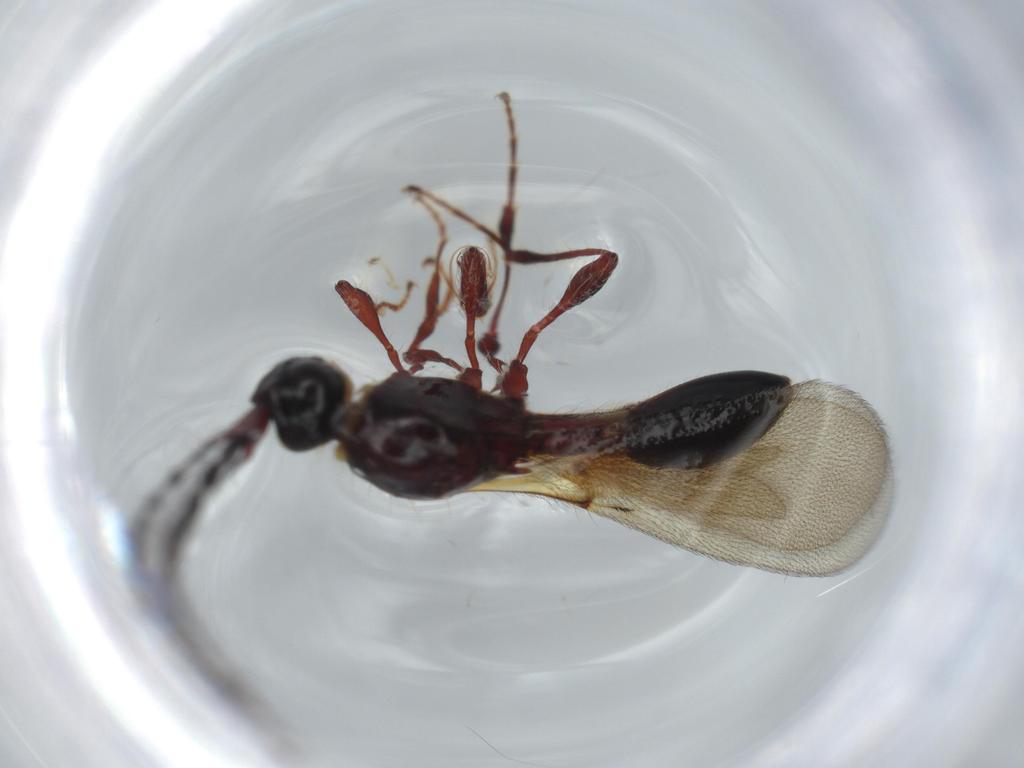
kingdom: Animalia
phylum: Arthropoda
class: Insecta
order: Hymenoptera
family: Diapriidae
